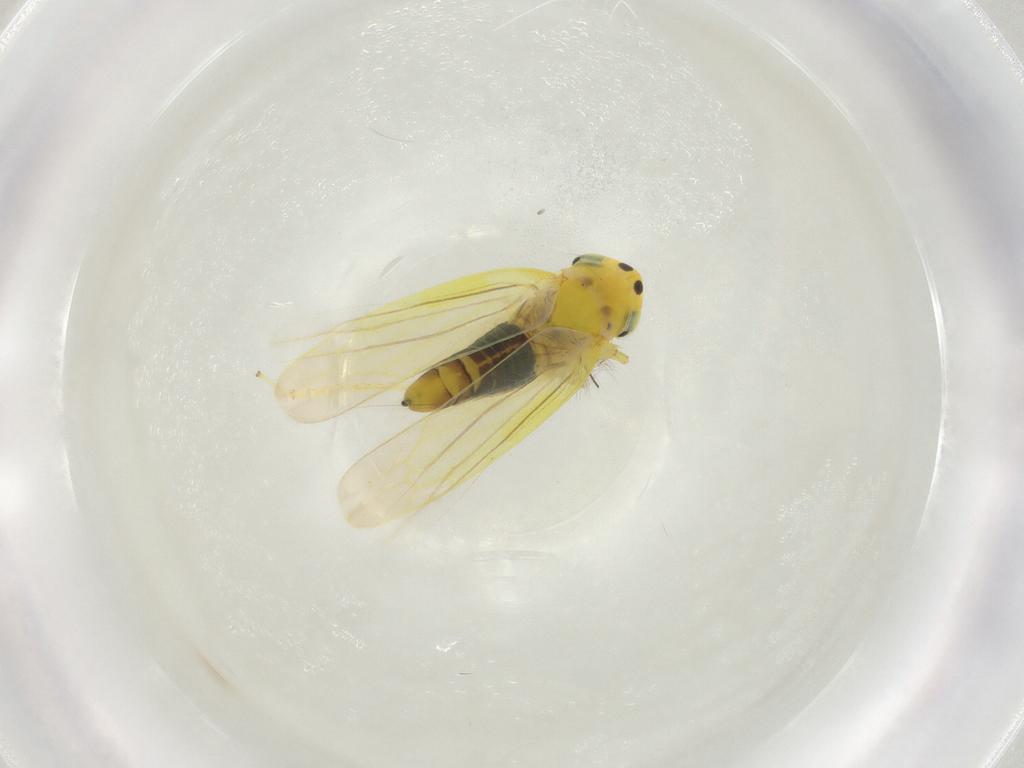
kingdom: Animalia
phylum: Arthropoda
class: Insecta
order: Hemiptera
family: Cicadellidae
